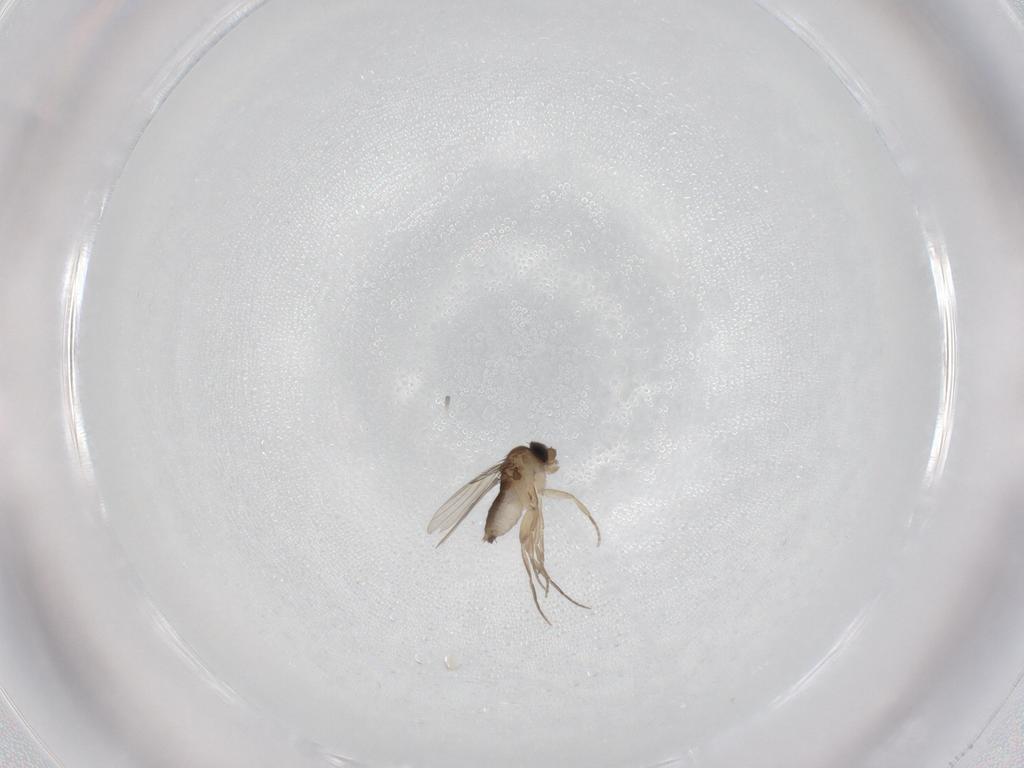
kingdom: Animalia
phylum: Arthropoda
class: Insecta
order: Diptera
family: Phoridae
